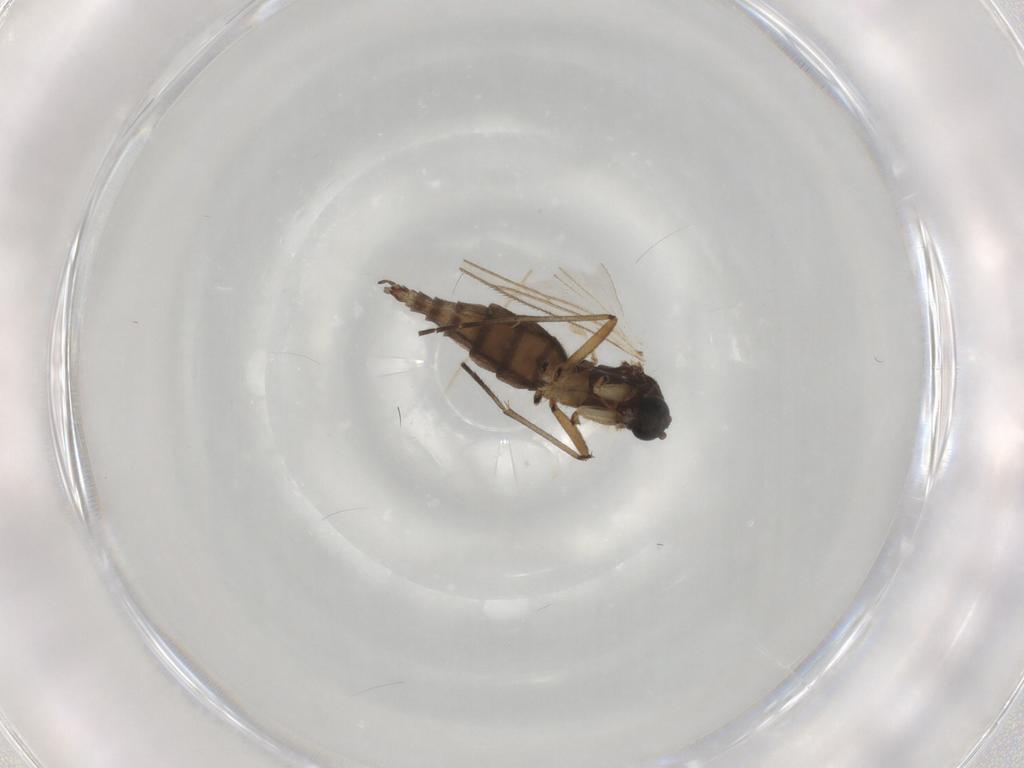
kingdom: Animalia
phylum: Arthropoda
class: Insecta
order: Diptera
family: Sciaridae
